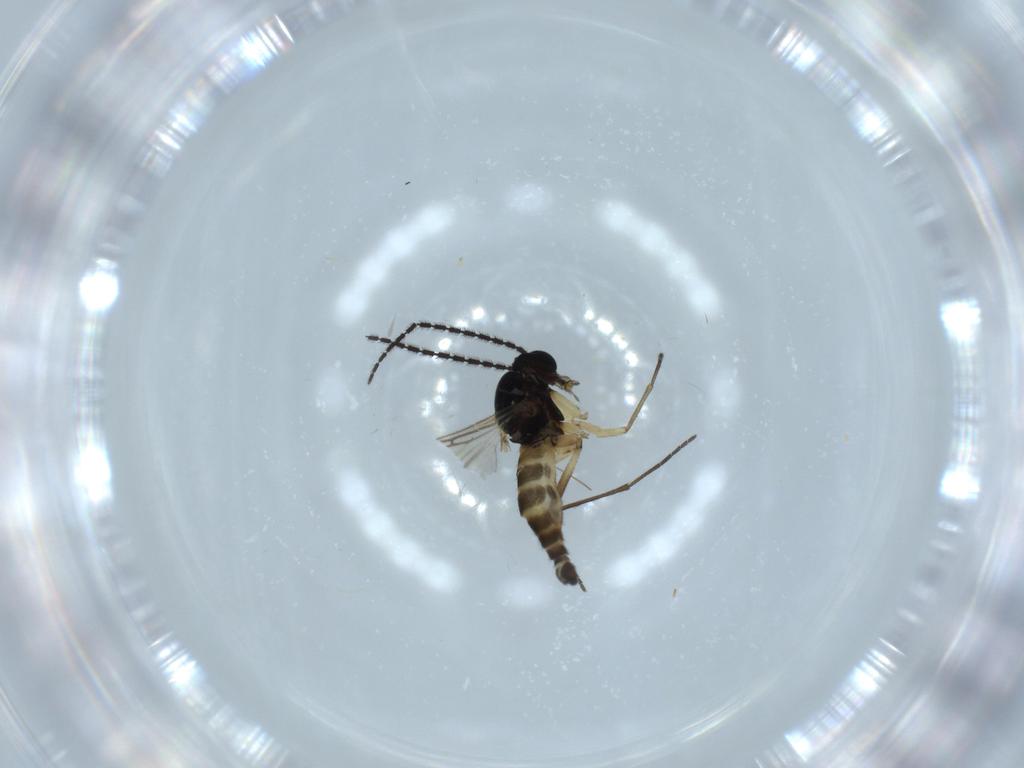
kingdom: Animalia
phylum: Arthropoda
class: Insecta
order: Diptera
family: Sciaridae
